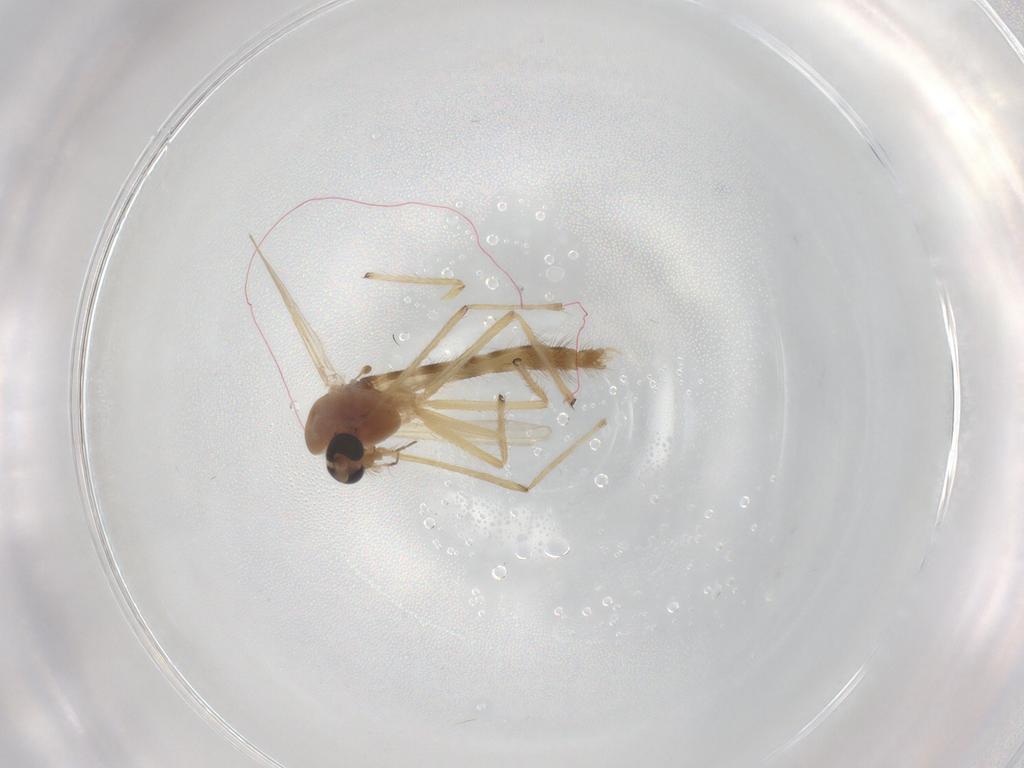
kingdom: Animalia
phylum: Arthropoda
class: Insecta
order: Diptera
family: Chironomidae
